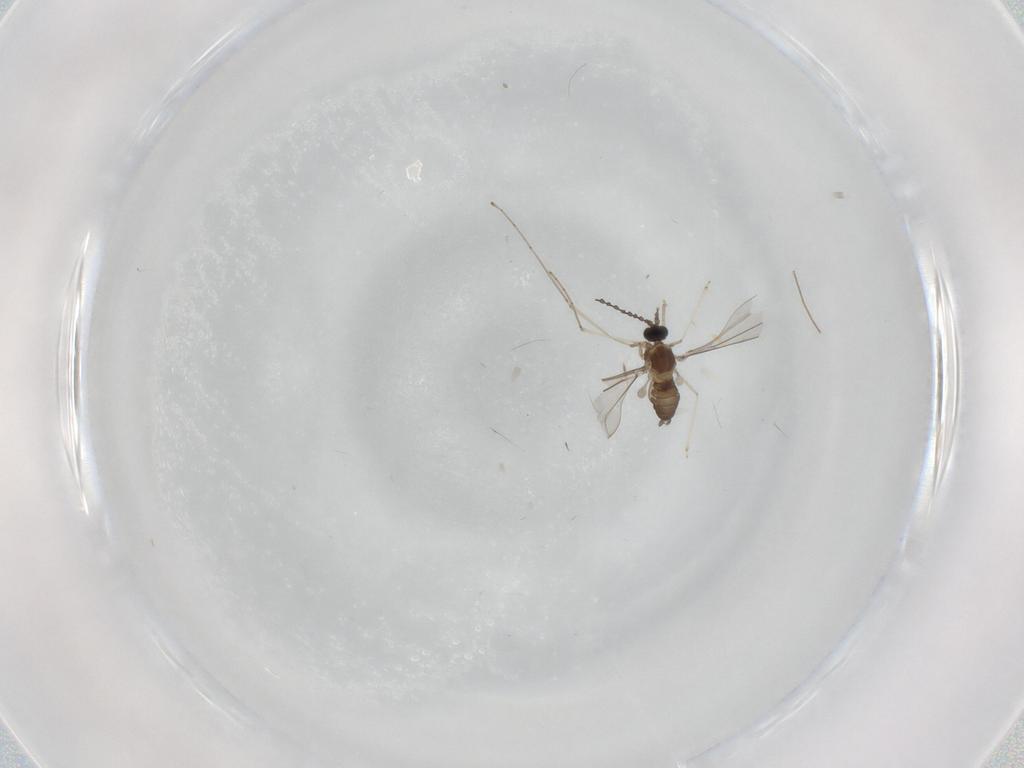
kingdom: Animalia
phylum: Arthropoda
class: Insecta
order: Diptera
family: Cecidomyiidae
